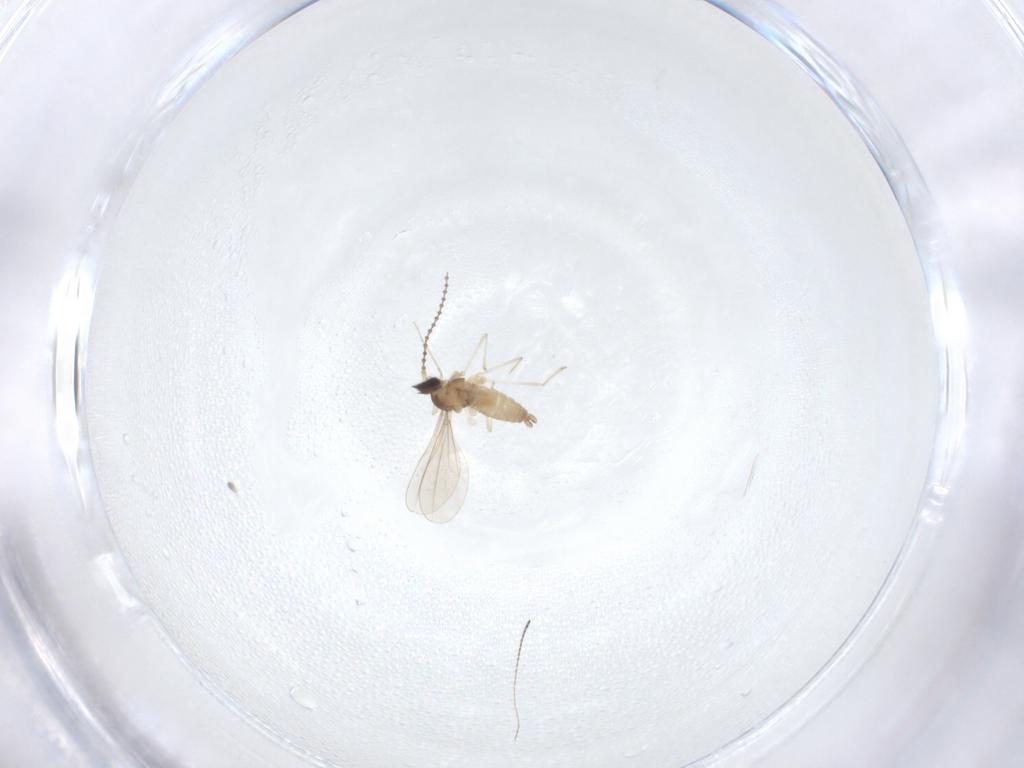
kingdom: Animalia
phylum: Arthropoda
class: Insecta
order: Diptera
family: Cecidomyiidae
